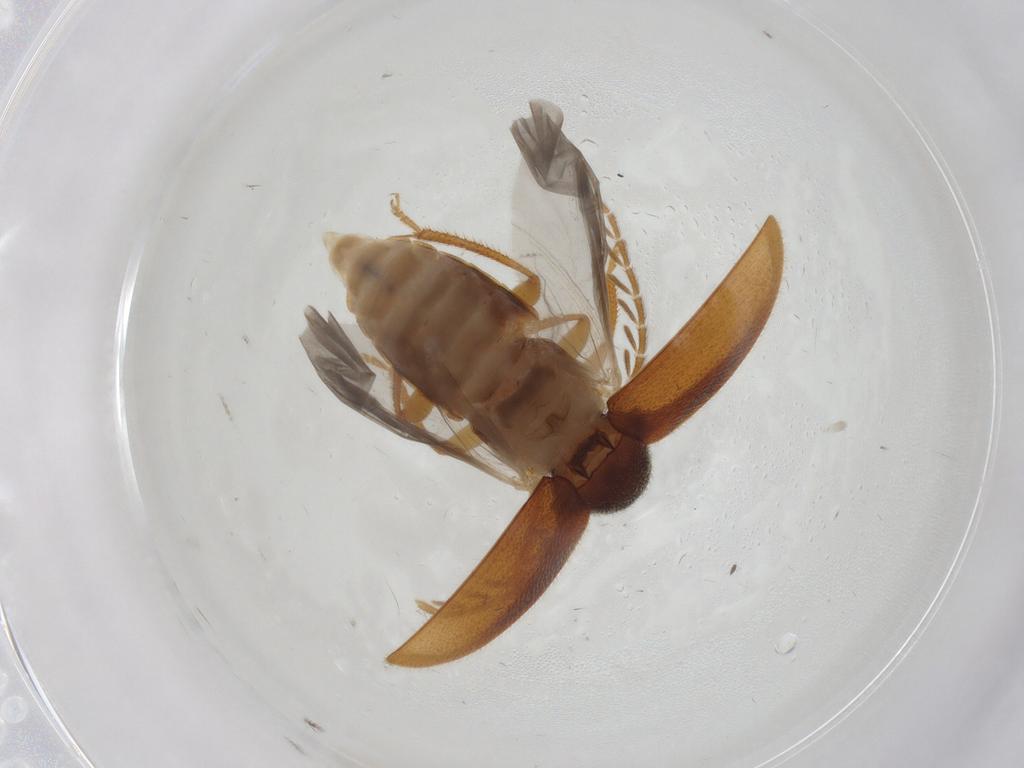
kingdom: Animalia
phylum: Arthropoda
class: Insecta
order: Coleoptera
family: Ptilodactylidae
